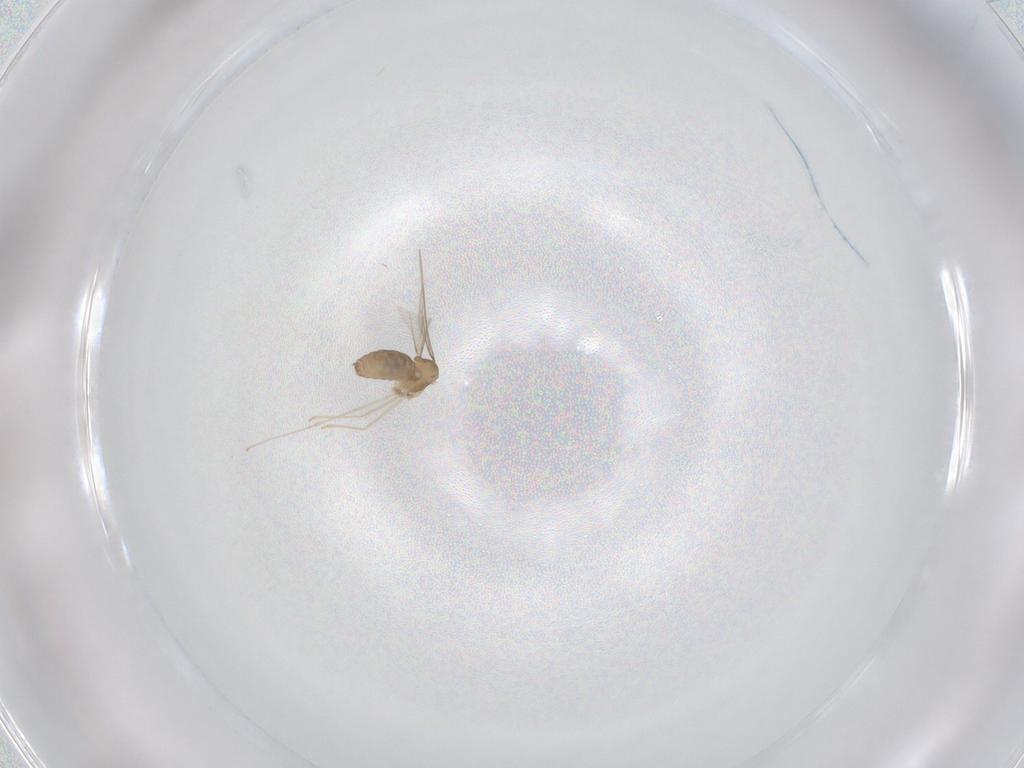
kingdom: Animalia
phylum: Arthropoda
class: Insecta
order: Diptera
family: Cecidomyiidae
